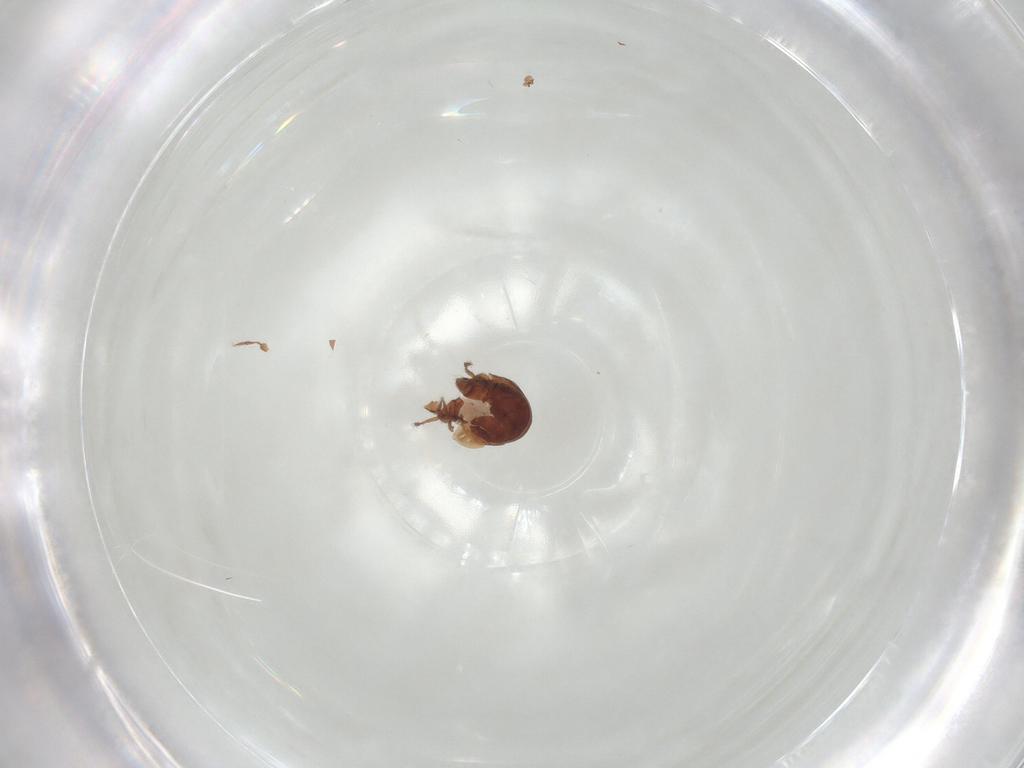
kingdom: Animalia
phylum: Arthropoda
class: Arachnida
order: Sarcoptiformes
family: Ceratozetidae
